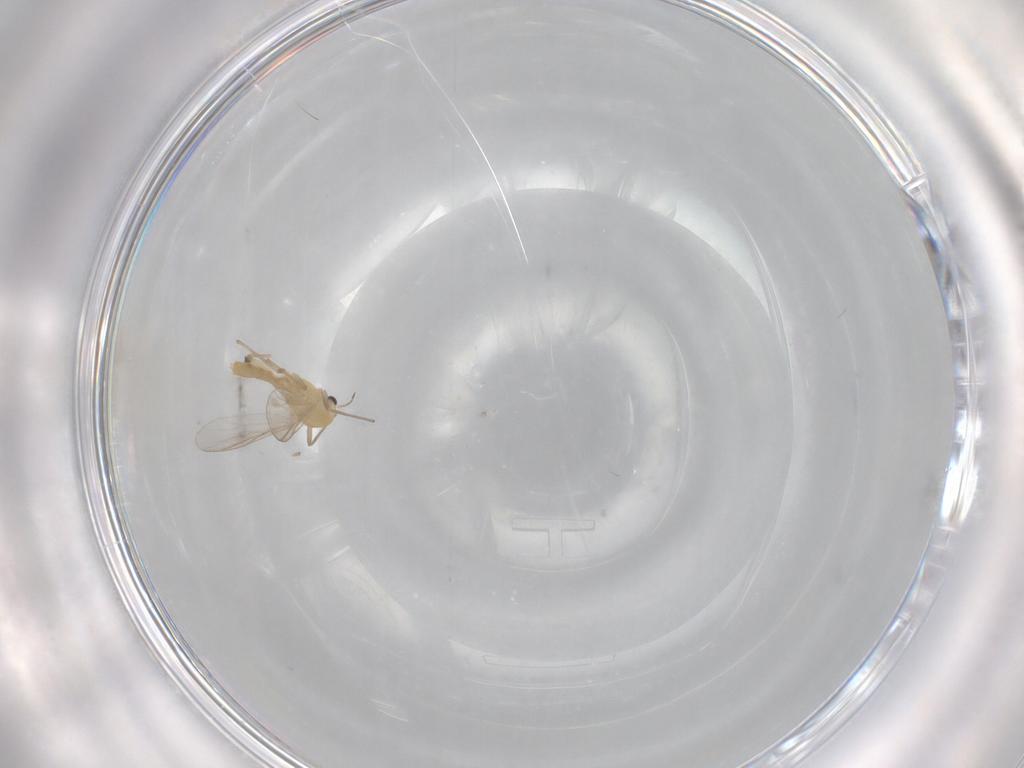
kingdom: Animalia
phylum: Arthropoda
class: Insecta
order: Diptera
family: Chironomidae
